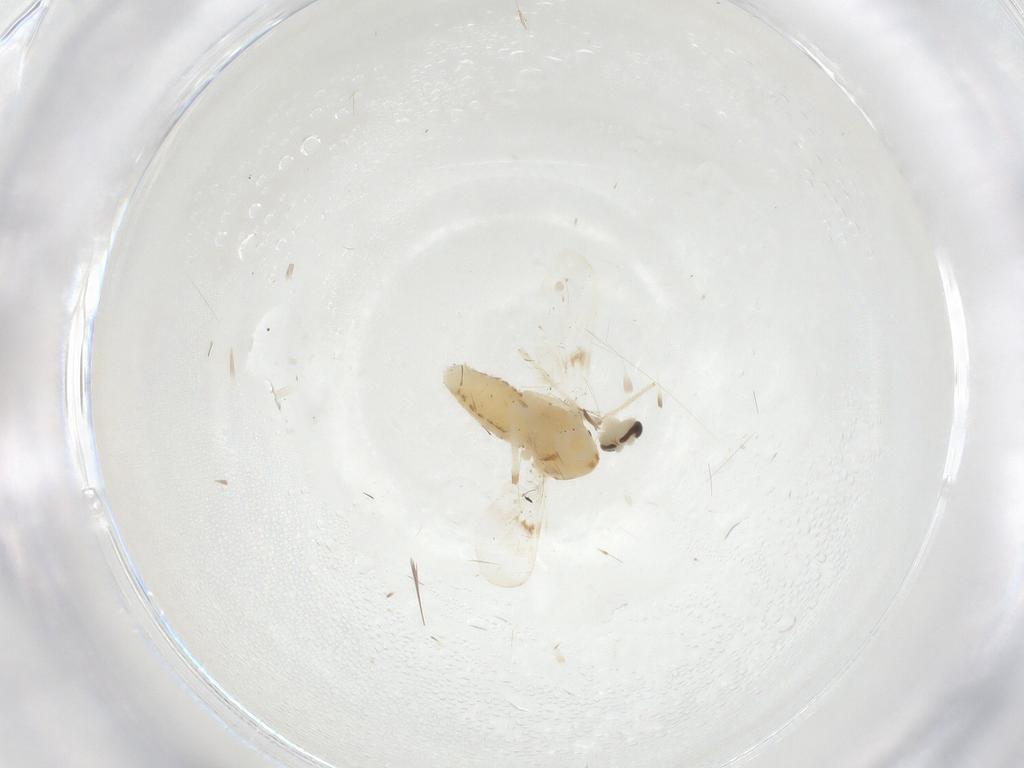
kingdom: Animalia
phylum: Arthropoda
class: Insecta
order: Diptera
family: Chironomidae
